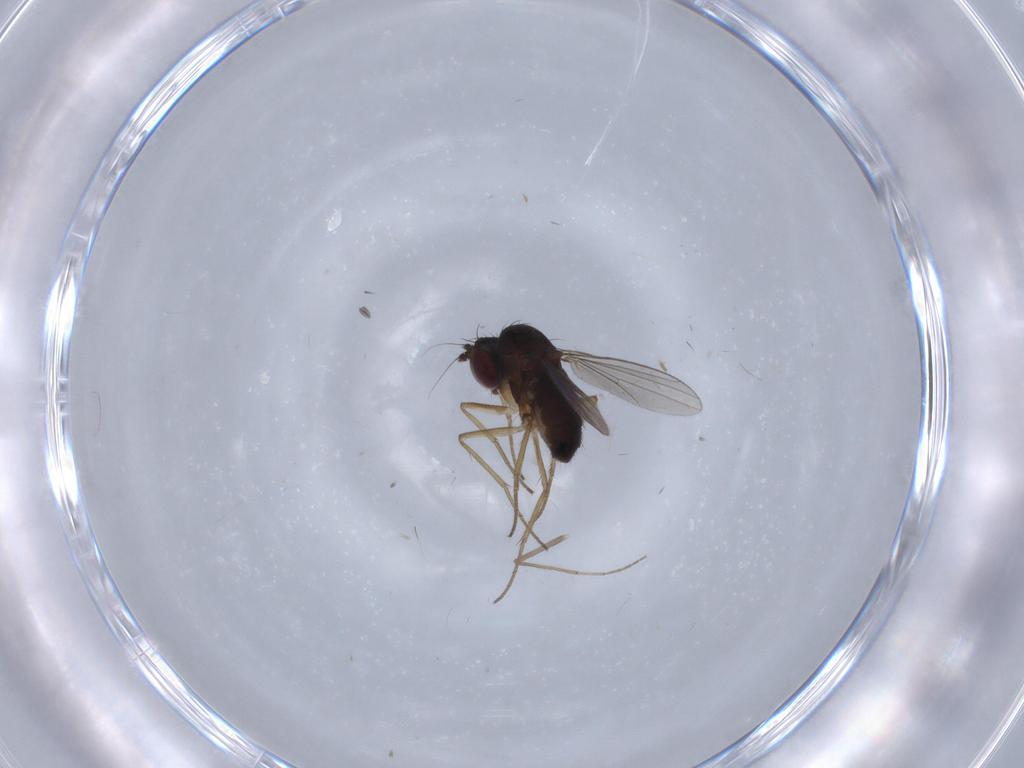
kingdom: Animalia
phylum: Arthropoda
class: Insecta
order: Diptera
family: Dolichopodidae
